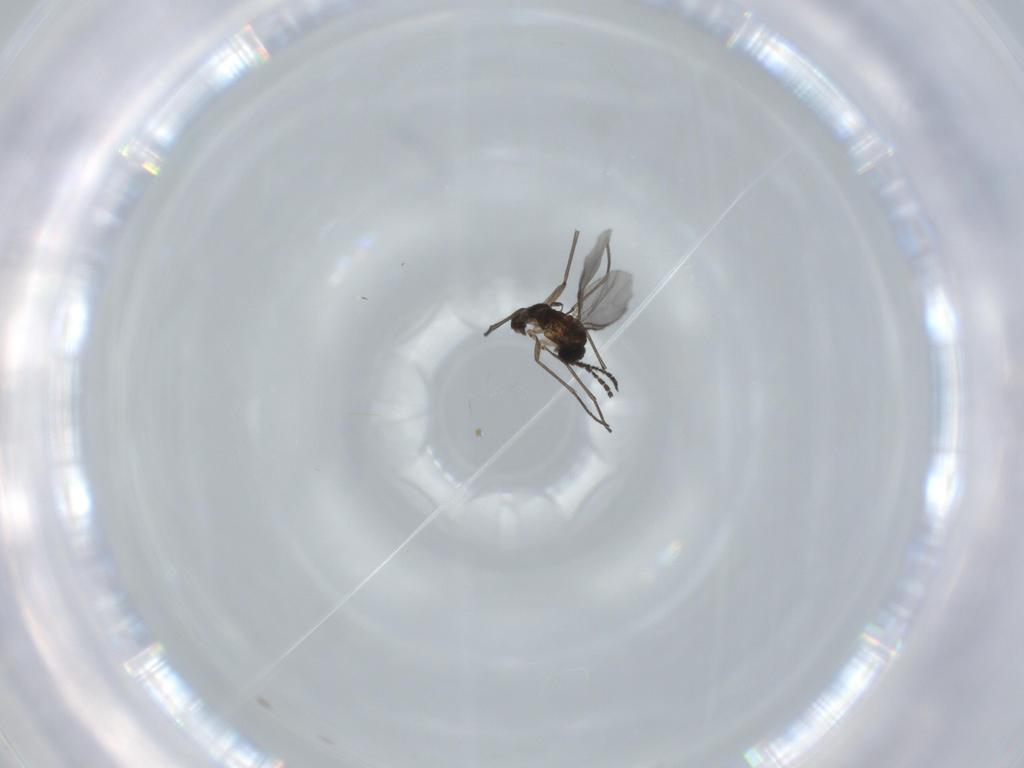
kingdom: Animalia
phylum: Arthropoda
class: Insecta
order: Diptera
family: Sciaridae
